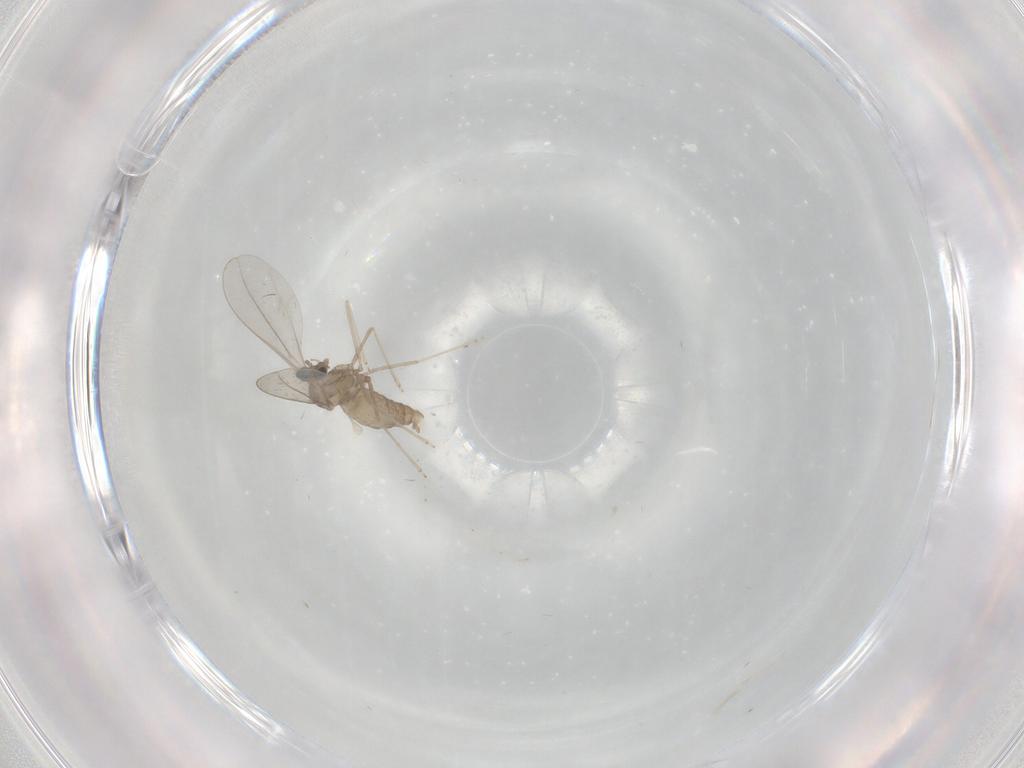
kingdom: Animalia
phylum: Arthropoda
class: Insecta
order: Diptera
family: Cecidomyiidae
